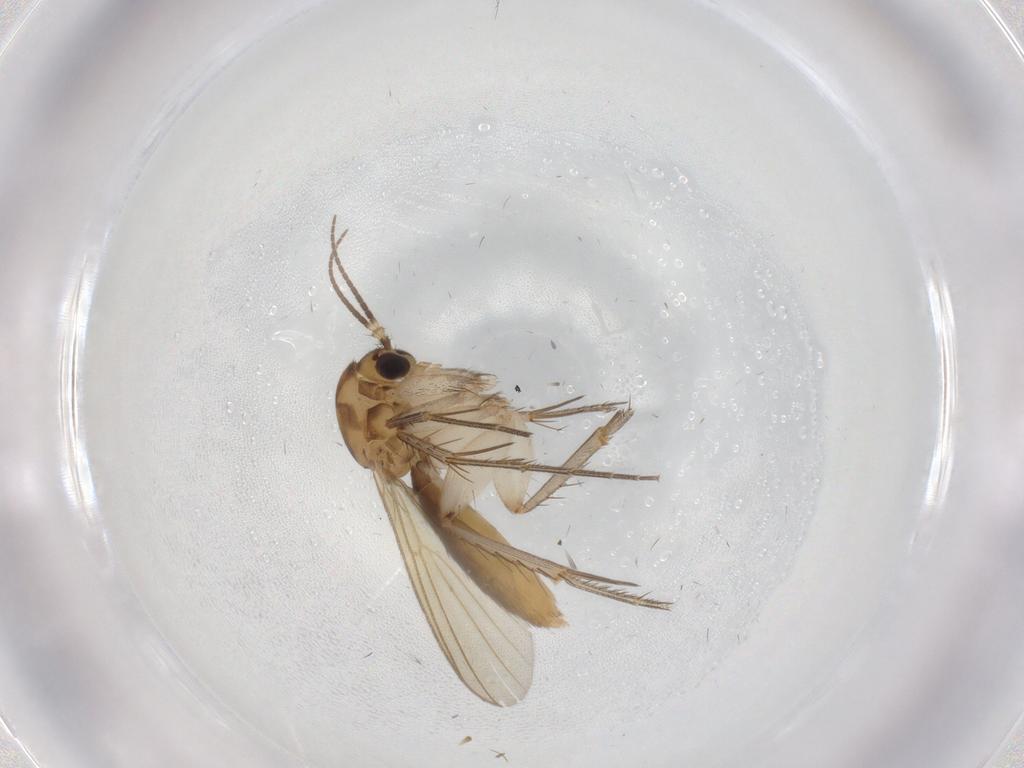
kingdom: Animalia
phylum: Arthropoda
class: Insecta
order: Diptera
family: Mycetophilidae
